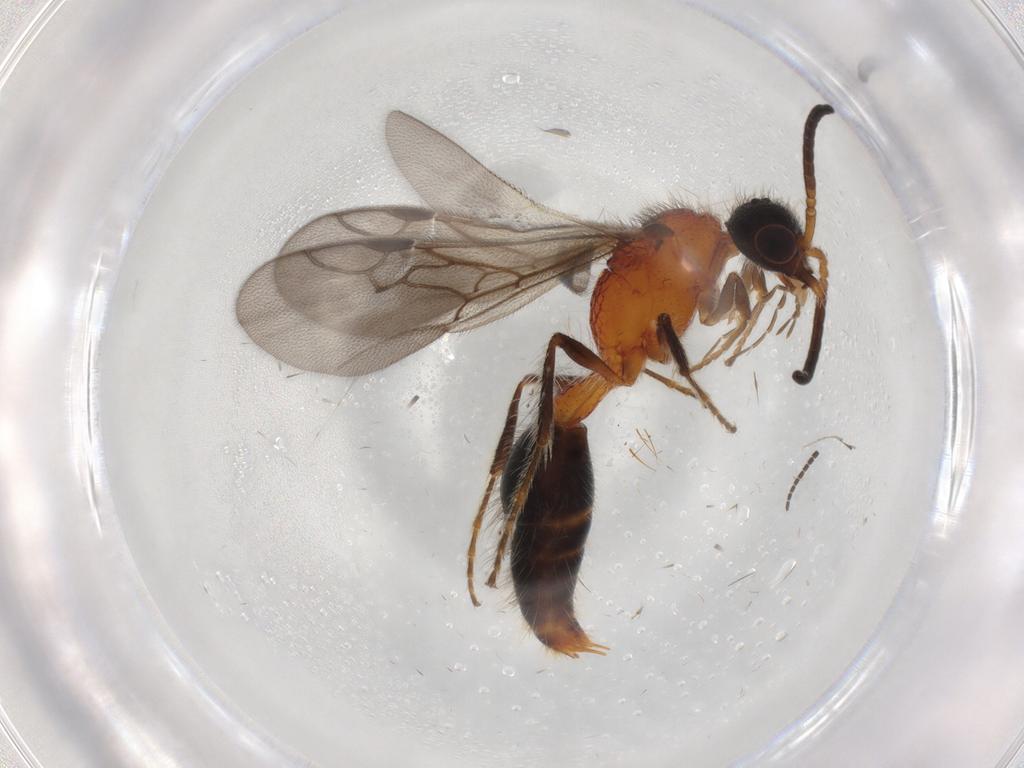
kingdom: Animalia
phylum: Arthropoda
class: Insecta
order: Hymenoptera
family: Mutillidae
